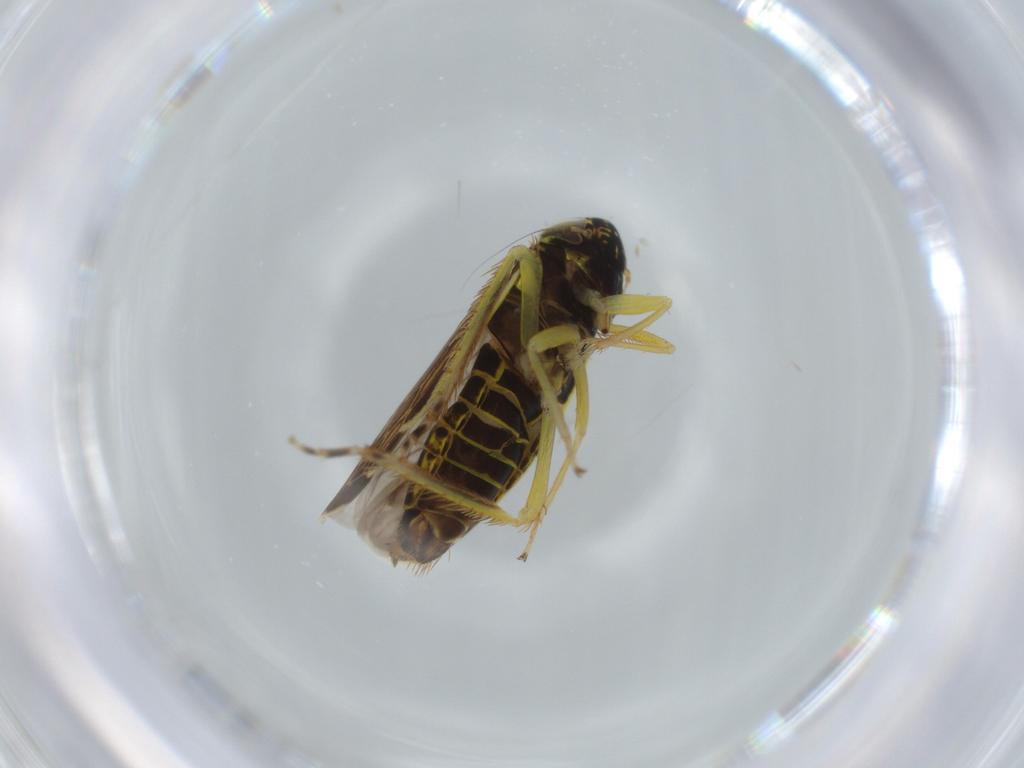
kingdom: Animalia
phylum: Arthropoda
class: Insecta
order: Hemiptera
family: Cicadellidae
